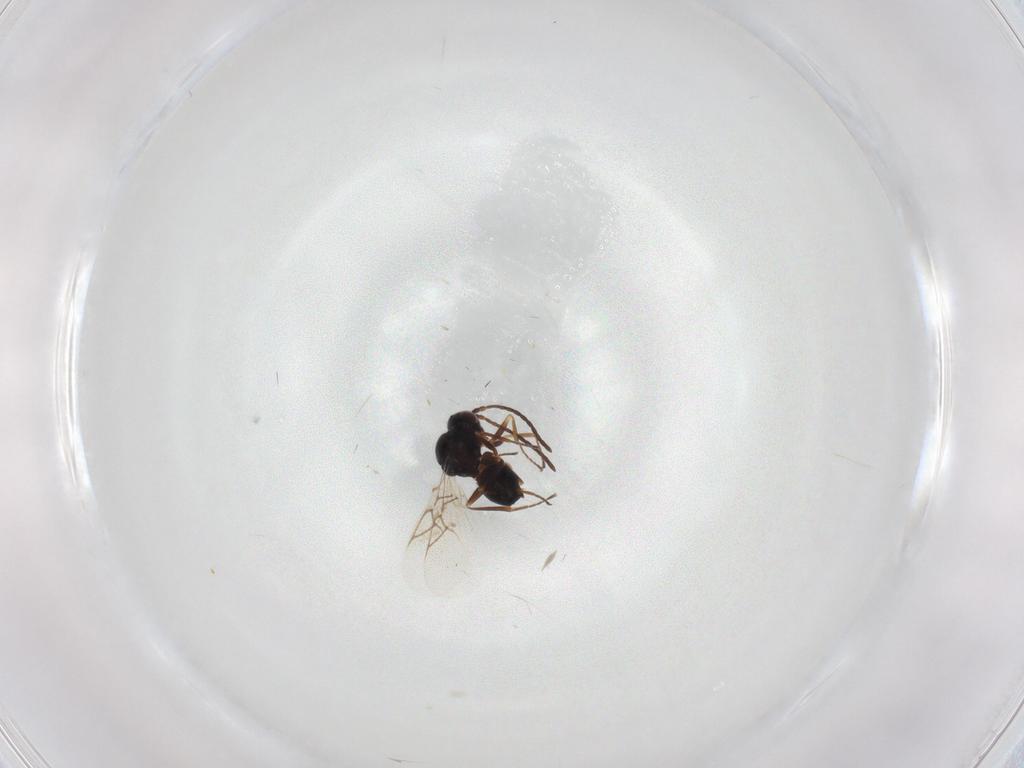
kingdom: Animalia
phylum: Arthropoda
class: Insecta
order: Hymenoptera
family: Figitidae
